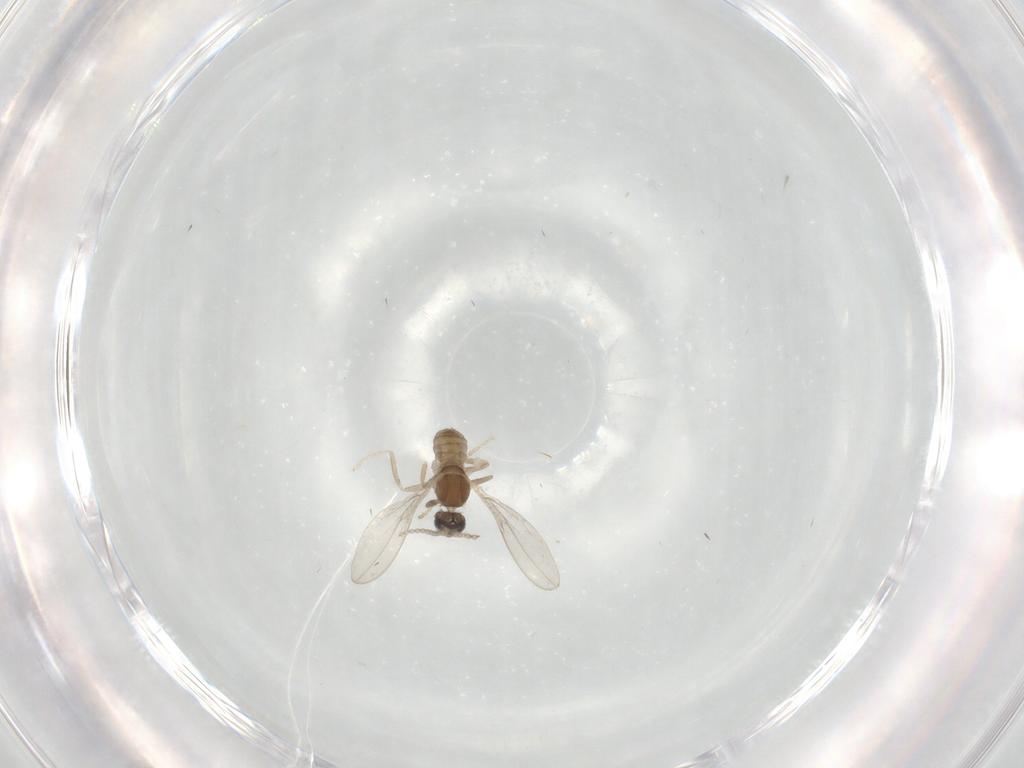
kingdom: Animalia
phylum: Arthropoda
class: Insecta
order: Diptera
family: Cecidomyiidae
